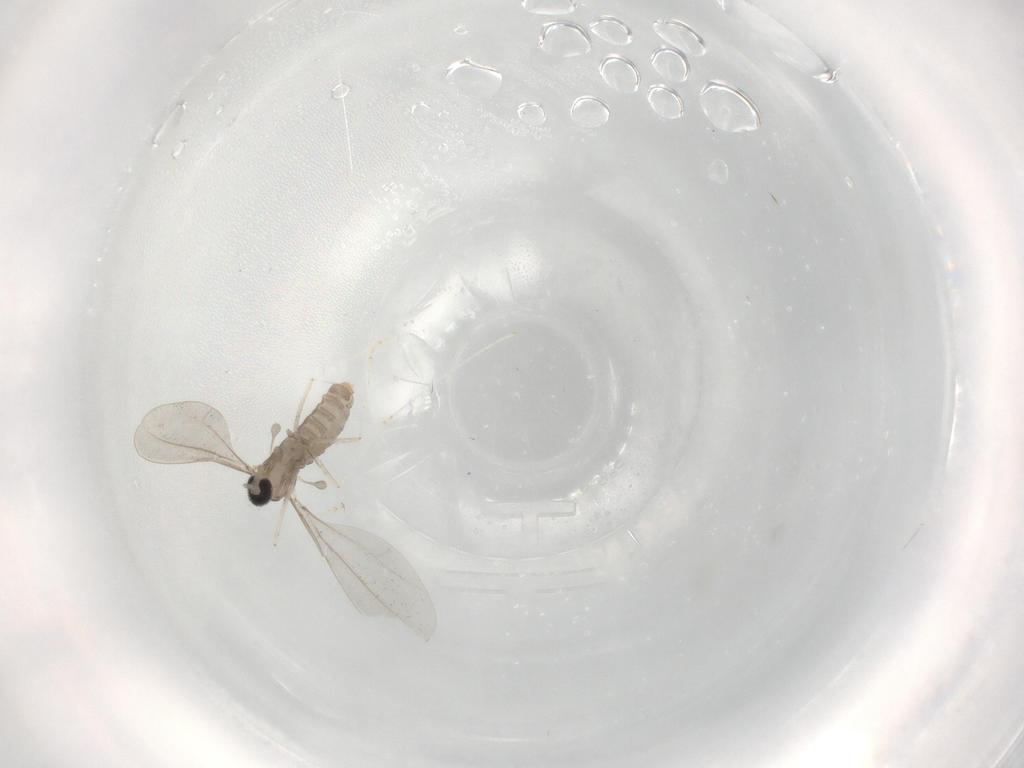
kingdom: Animalia
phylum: Arthropoda
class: Insecta
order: Diptera
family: Cecidomyiidae
